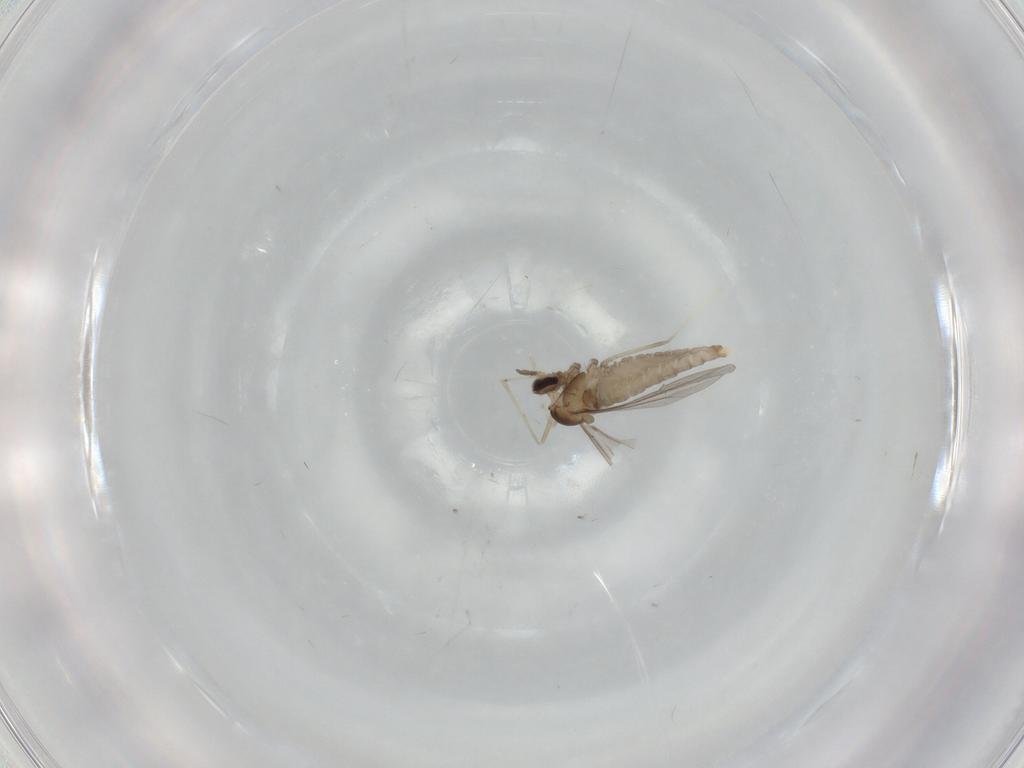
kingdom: Animalia
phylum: Arthropoda
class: Insecta
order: Diptera
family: Cecidomyiidae
